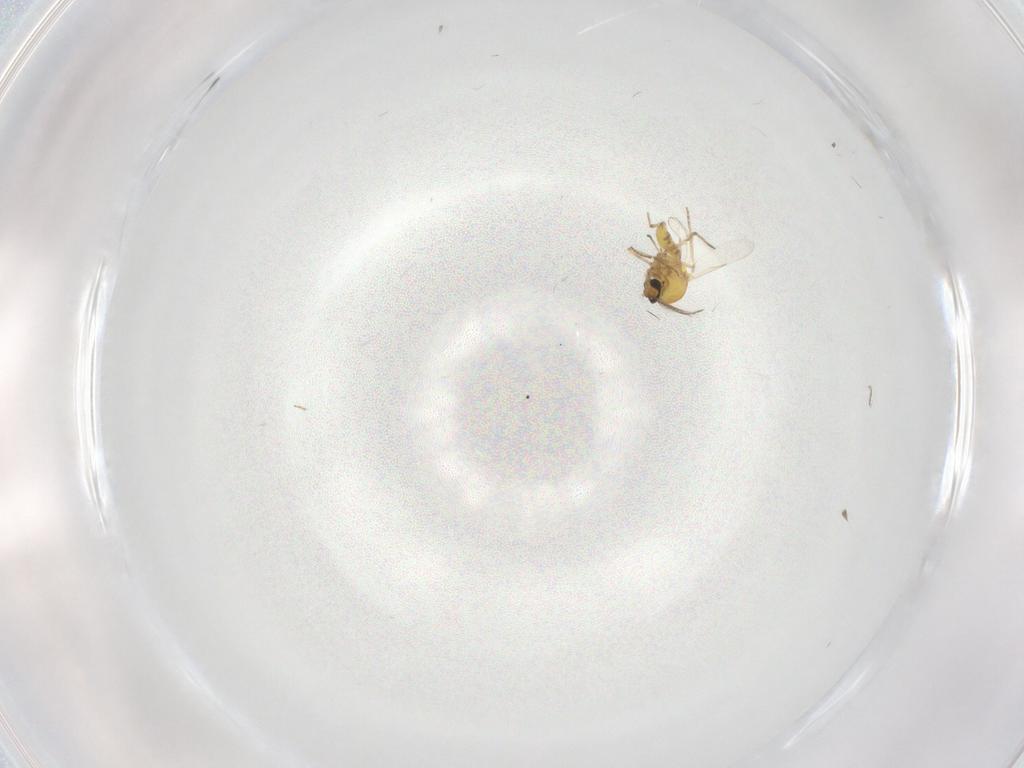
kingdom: Animalia
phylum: Arthropoda
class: Insecta
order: Diptera
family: Ceratopogonidae
